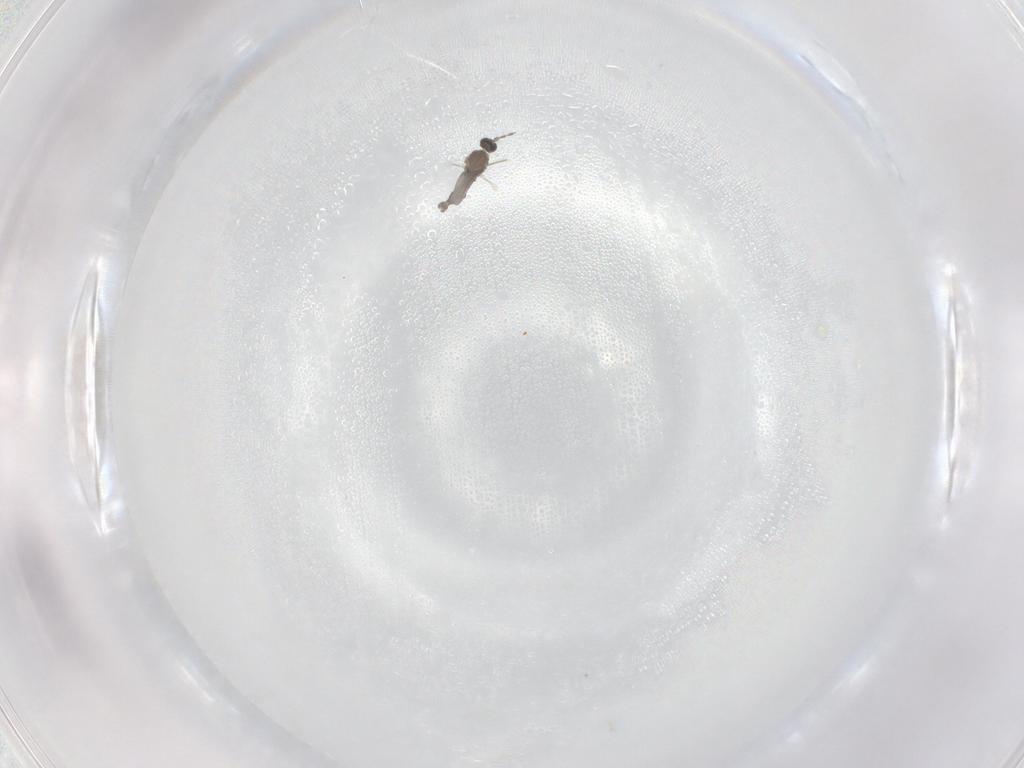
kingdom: Animalia
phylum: Arthropoda
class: Insecta
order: Diptera
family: Cecidomyiidae
